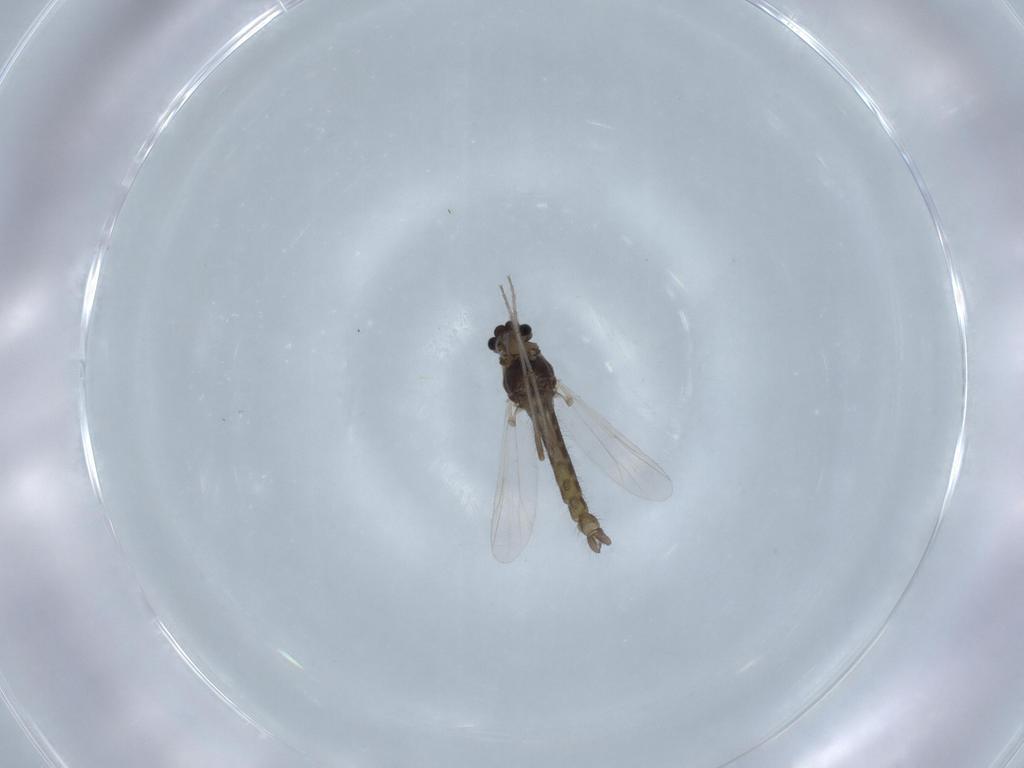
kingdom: Animalia
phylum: Arthropoda
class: Insecta
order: Diptera
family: Chironomidae
